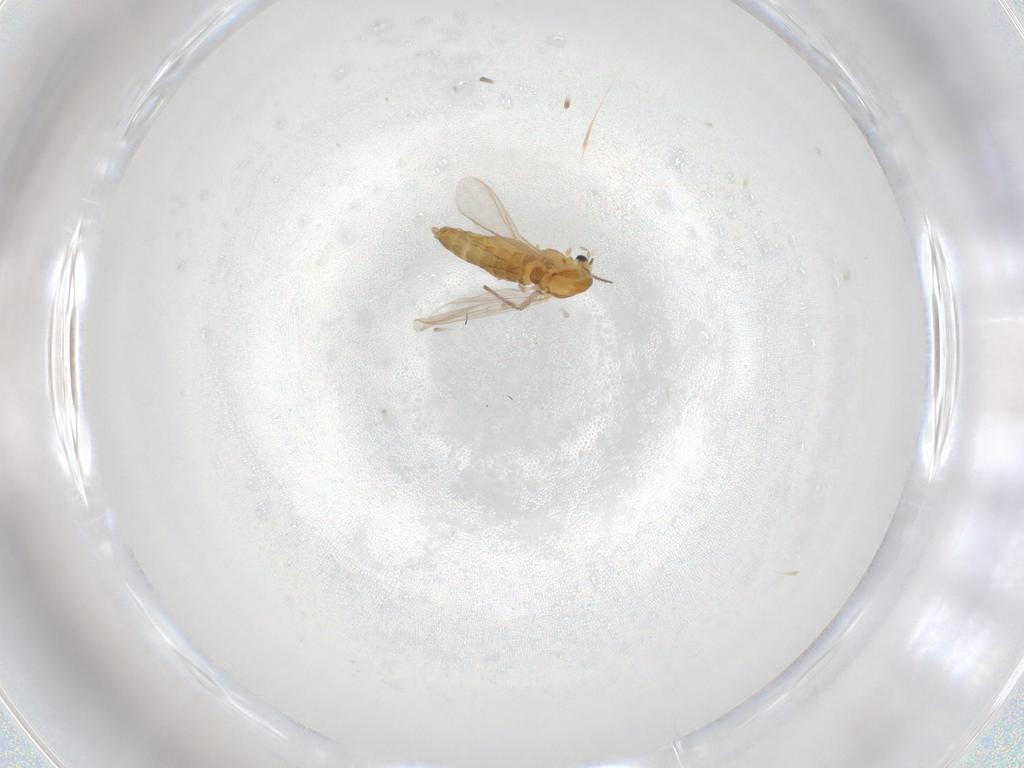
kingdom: Animalia
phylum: Arthropoda
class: Insecta
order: Diptera
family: Chironomidae
